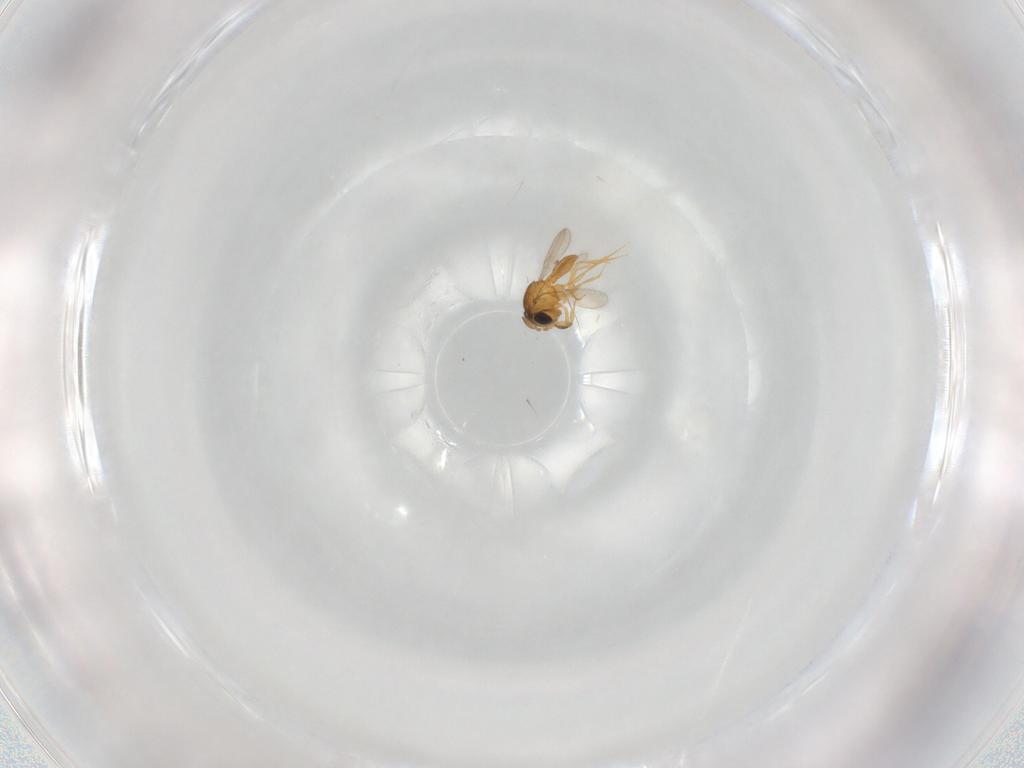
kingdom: Animalia
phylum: Arthropoda
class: Insecta
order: Hymenoptera
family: Scelionidae
